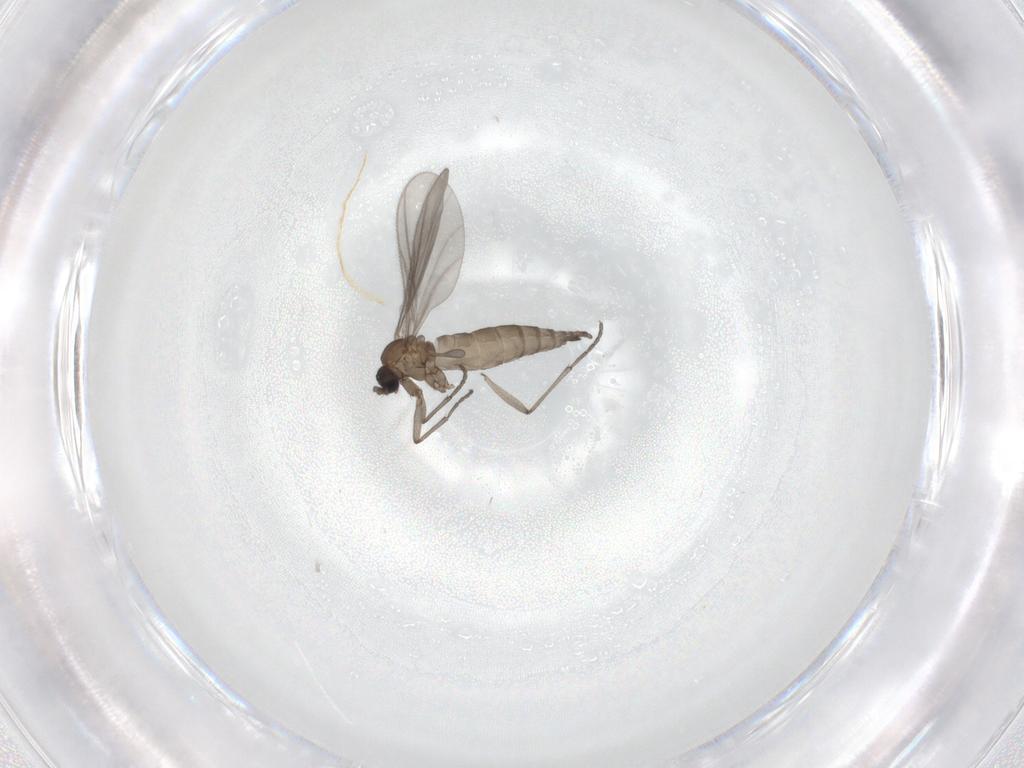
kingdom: Animalia
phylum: Arthropoda
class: Insecta
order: Diptera
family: Sciaridae
